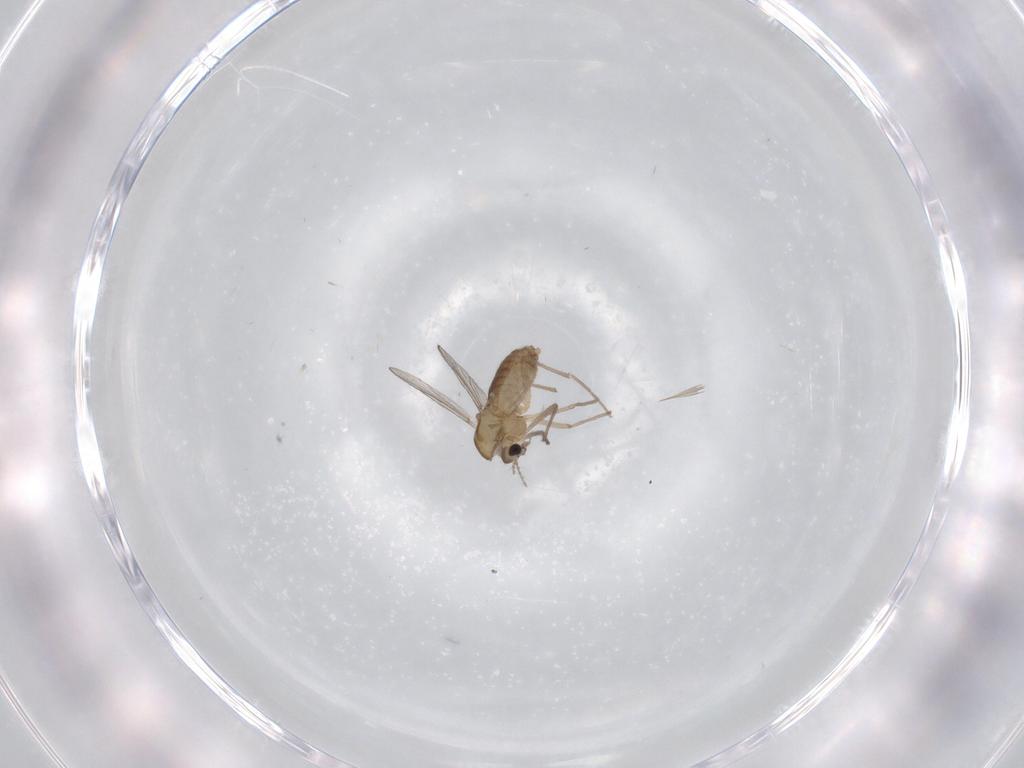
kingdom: Animalia
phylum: Arthropoda
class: Insecta
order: Diptera
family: Chironomidae
